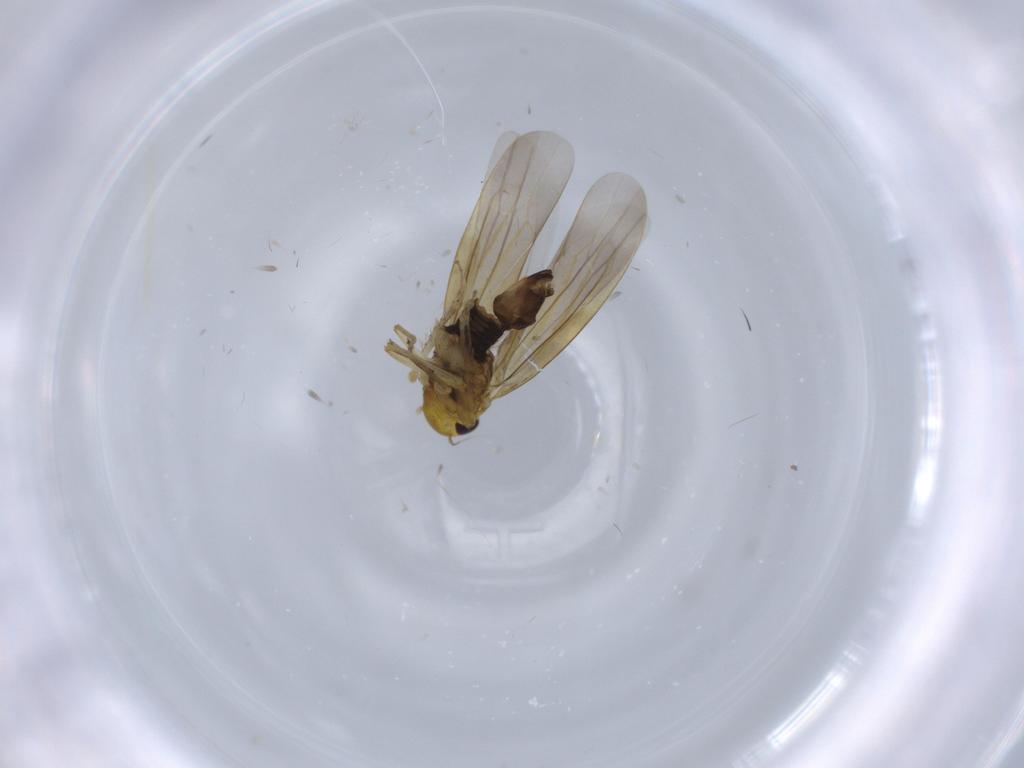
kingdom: Animalia
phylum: Arthropoda
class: Insecta
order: Hemiptera
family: Cicadellidae
